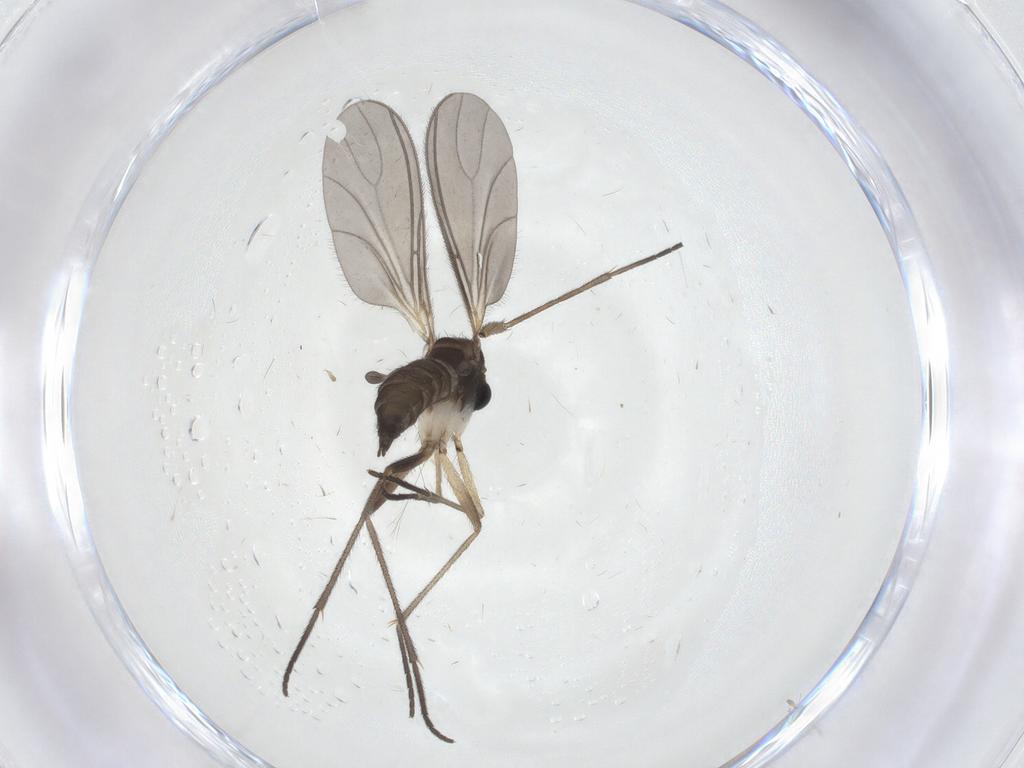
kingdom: Animalia
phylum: Arthropoda
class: Insecta
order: Diptera
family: Sciaridae
